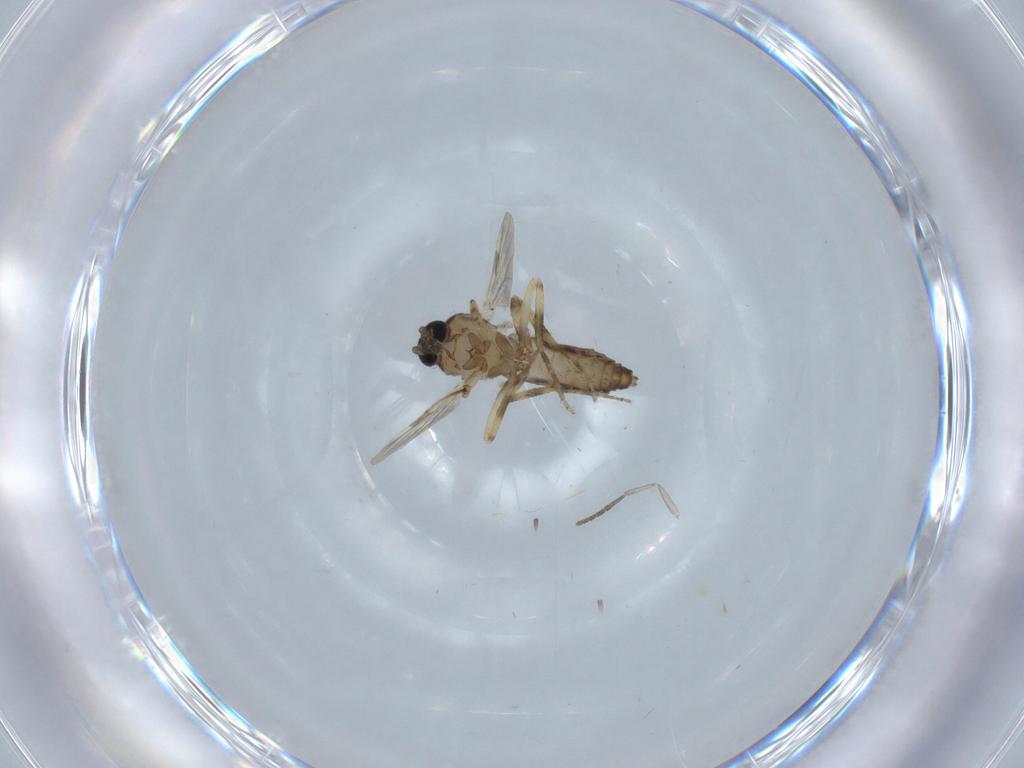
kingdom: Animalia
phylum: Arthropoda
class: Insecta
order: Diptera
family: Ceratopogonidae
